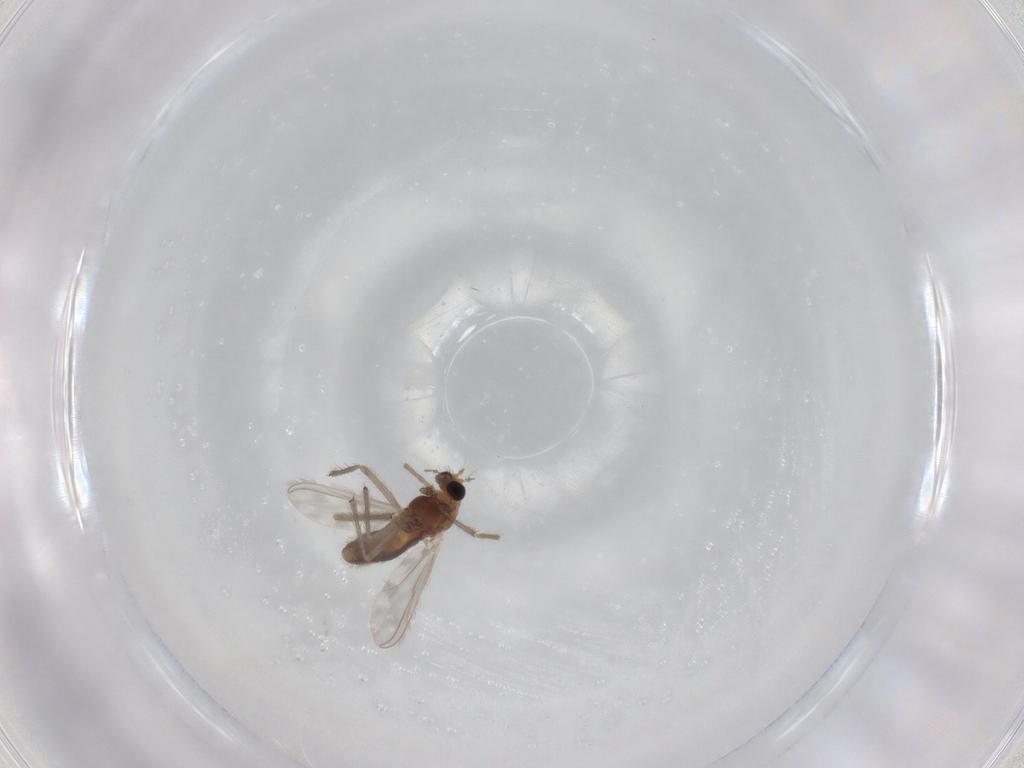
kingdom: Animalia
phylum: Arthropoda
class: Insecta
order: Diptera
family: Chironomidae
